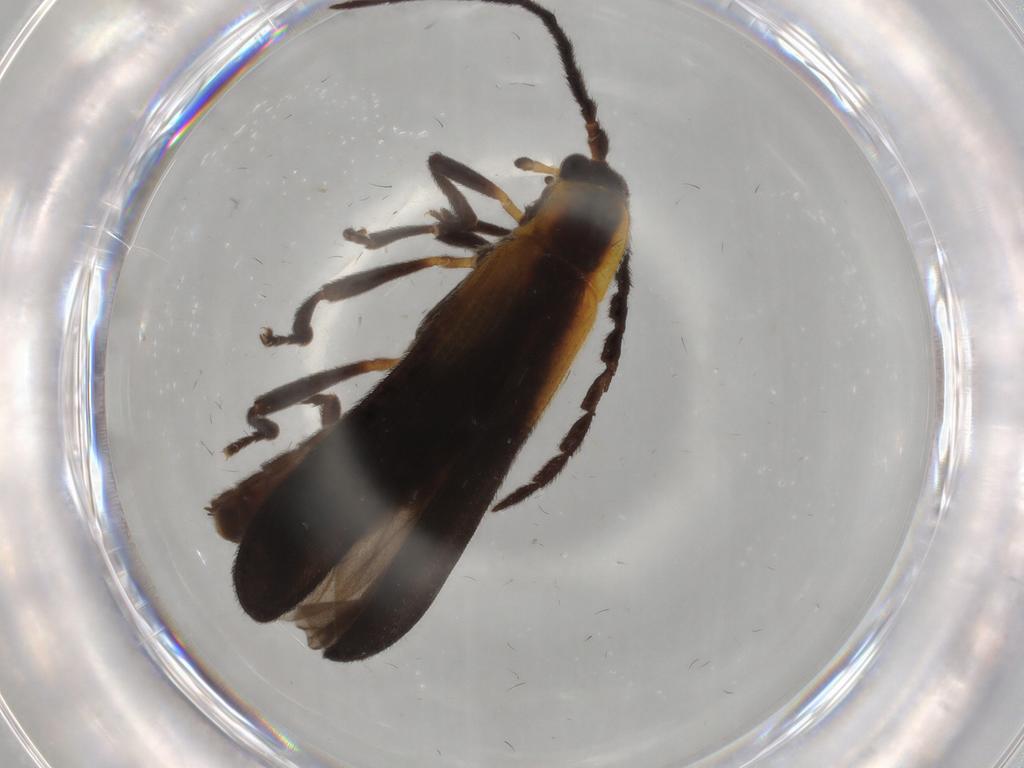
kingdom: Animalia
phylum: Arthropoda
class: Insecta
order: Coleoptera
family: Lycidae
